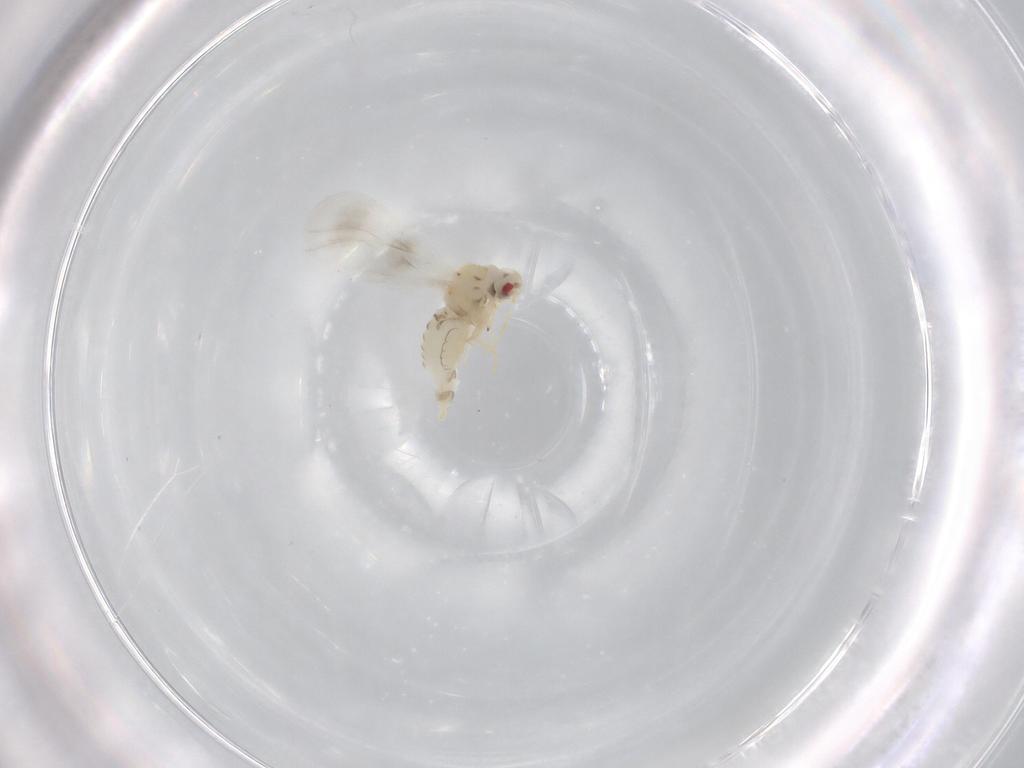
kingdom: Animalia
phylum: Arthropoda
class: Insecta
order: Hemiptera
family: Aleyrodidae
